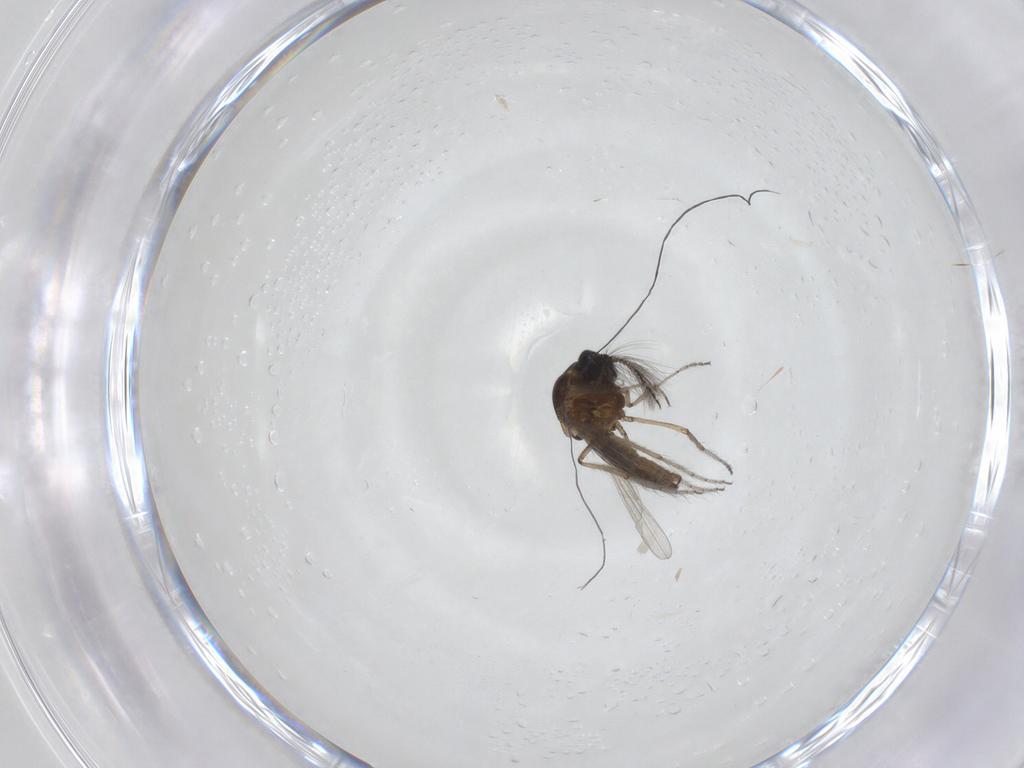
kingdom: Animalia
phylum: Arthropoda
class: Insecta
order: Diptera
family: Ceratopogonidae
